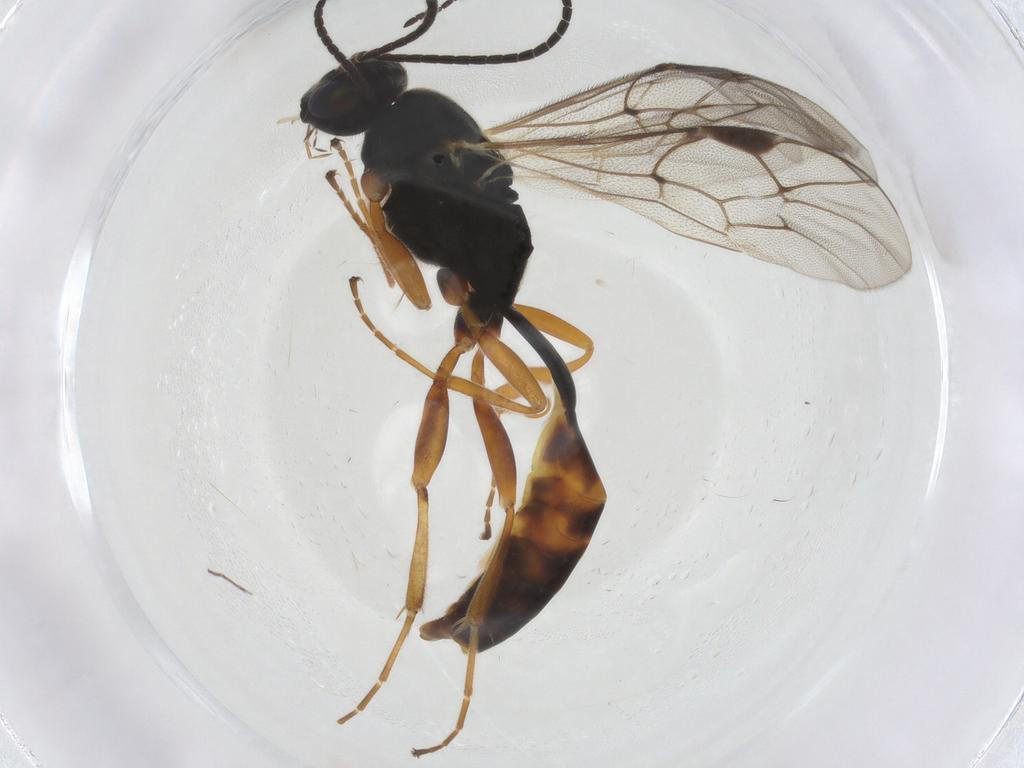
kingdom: Animalia
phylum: Arthropoda
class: Insecta
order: Hymenoptera
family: Ichneumonidae
